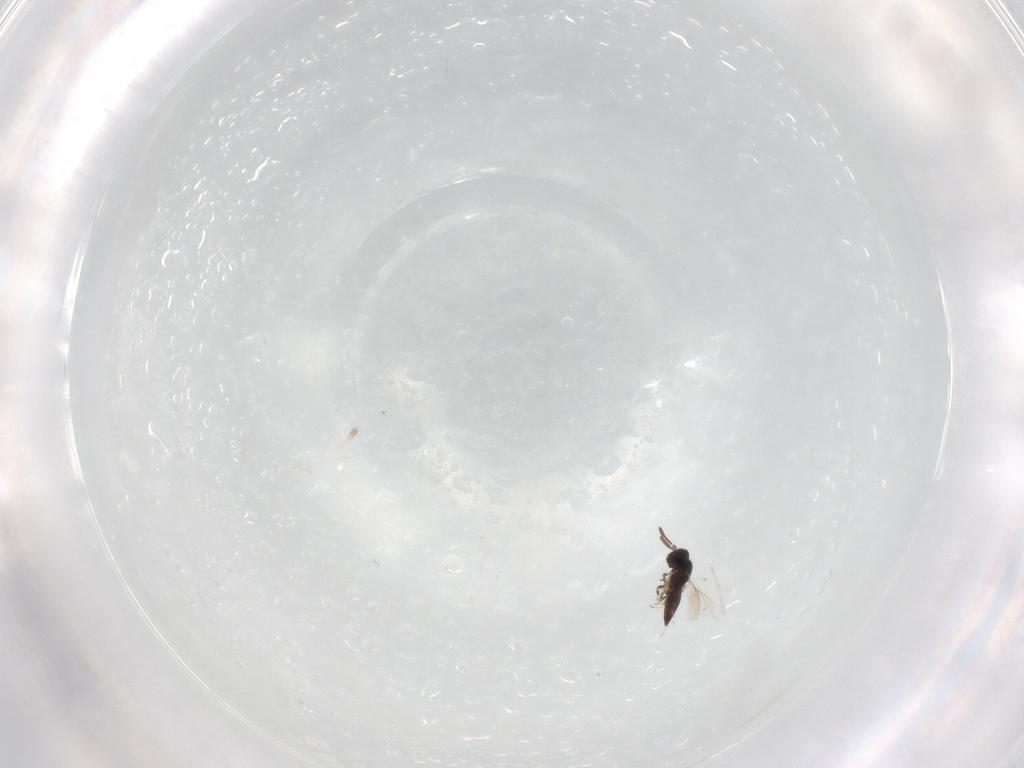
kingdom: Animalia
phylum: Arthropoda
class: Insecta
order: Hymenoptera
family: Scelionidae
